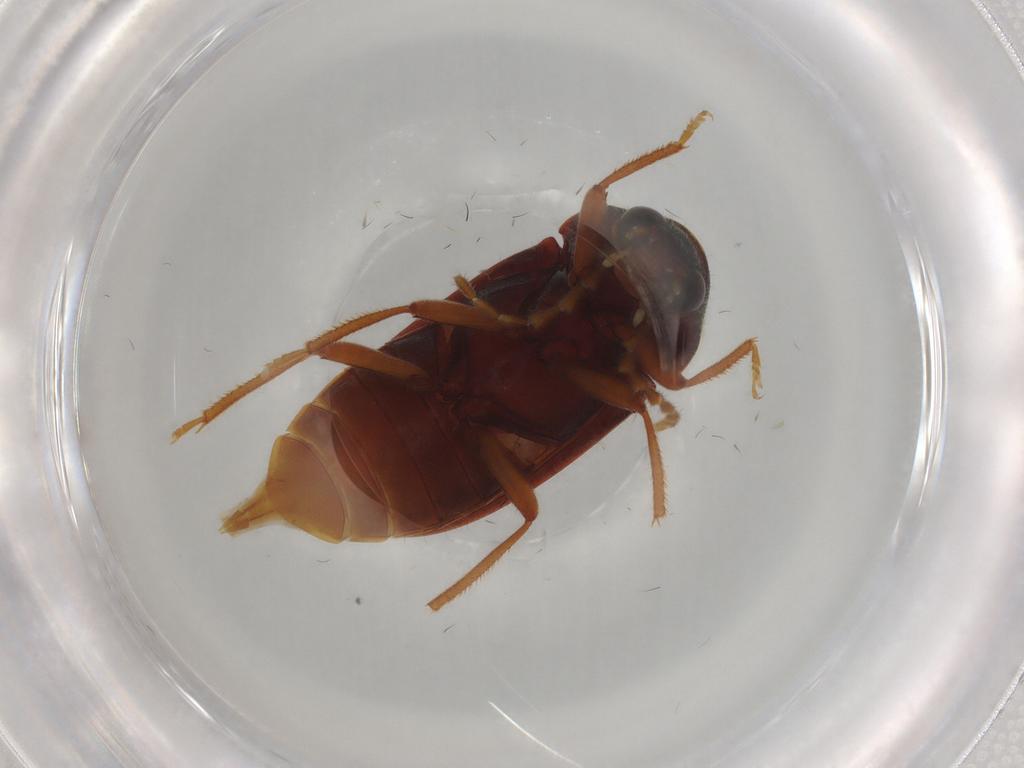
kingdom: Animalia
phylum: Arthropoda
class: Insecta
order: Coleoptera
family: Ptilodactylidae
